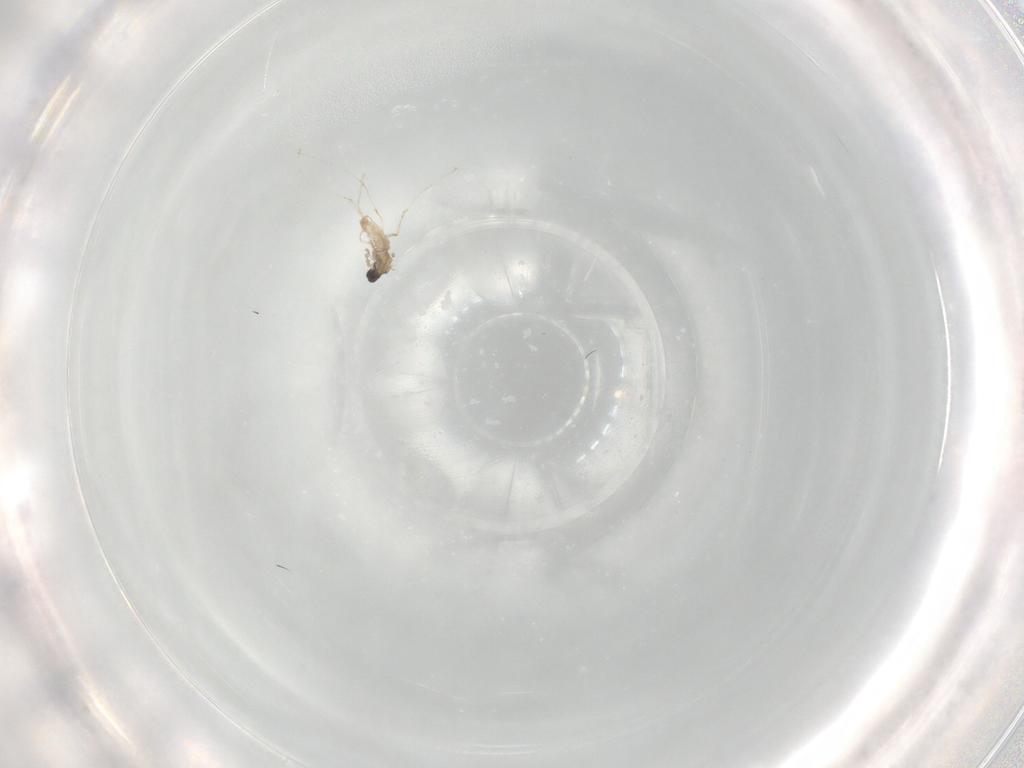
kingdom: Animalia
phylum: Arthropoda
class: Insecta
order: Diptera
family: Cecidomyiidae
